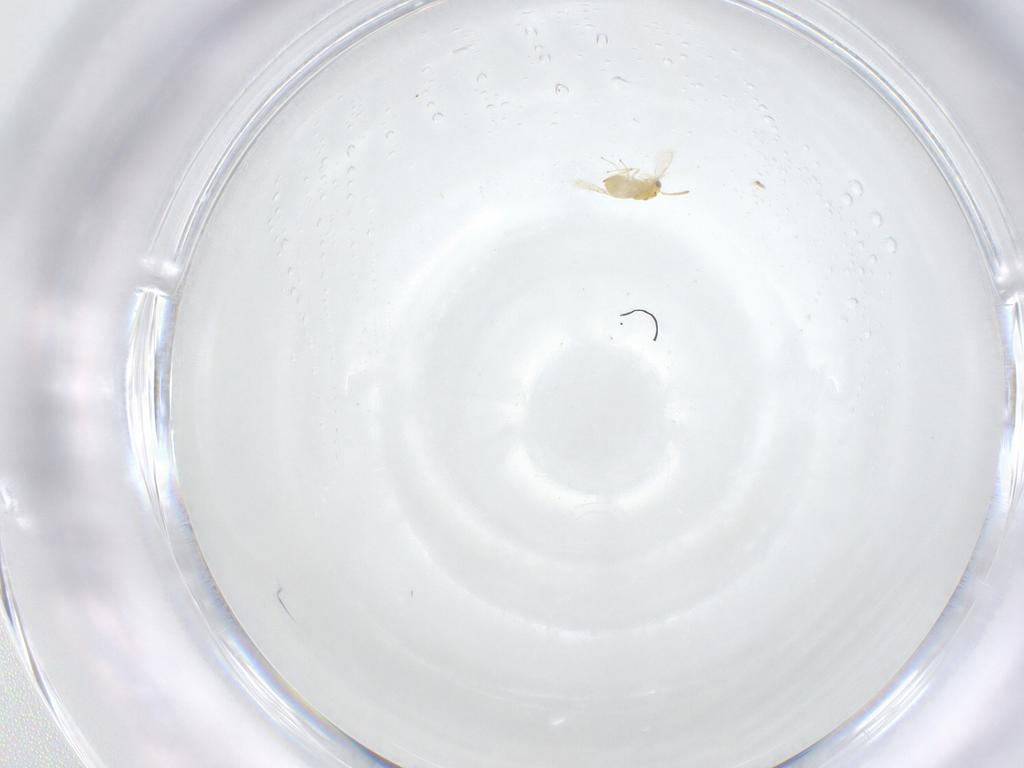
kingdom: Animalia
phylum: Arthropoda
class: Insecta
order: Hymenoptera
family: Aphelinidae
